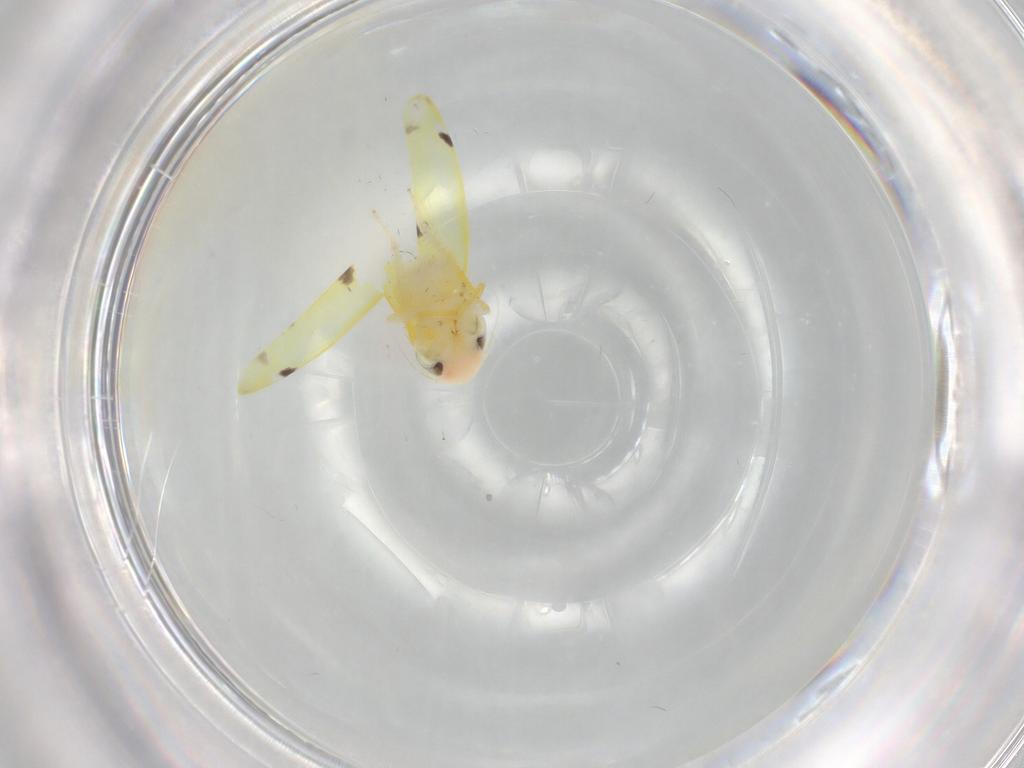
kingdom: Animalia
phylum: Arthropoda
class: Insecta
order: Hemiptera
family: Cicadellidae
